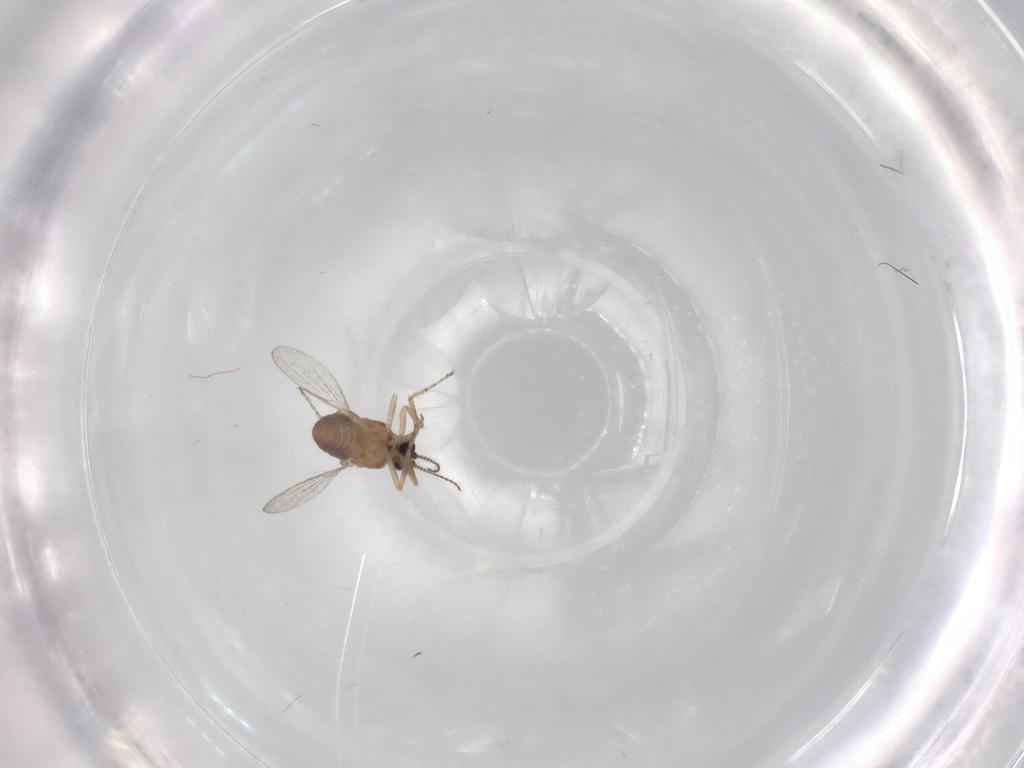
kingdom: Animalia
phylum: Arthropoda
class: Insecta
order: Diptera
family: Ceratopogonidae
